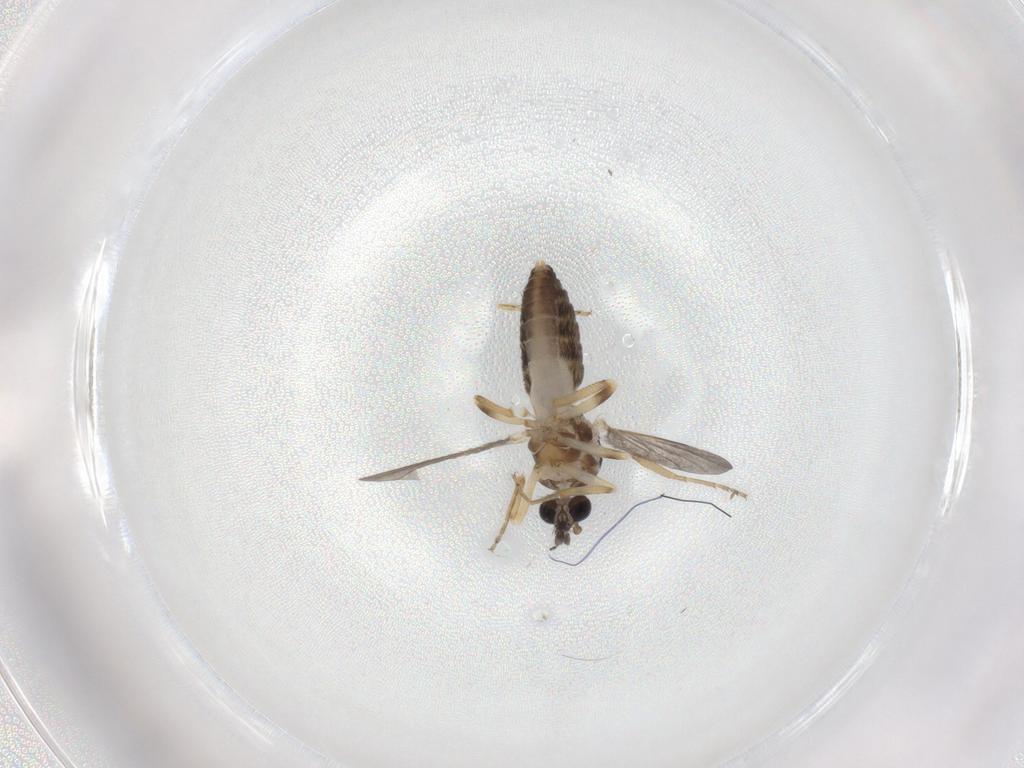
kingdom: Animalia
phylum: Arthropoda
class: Insecta
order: Diptera
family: Ceratopogonidae
